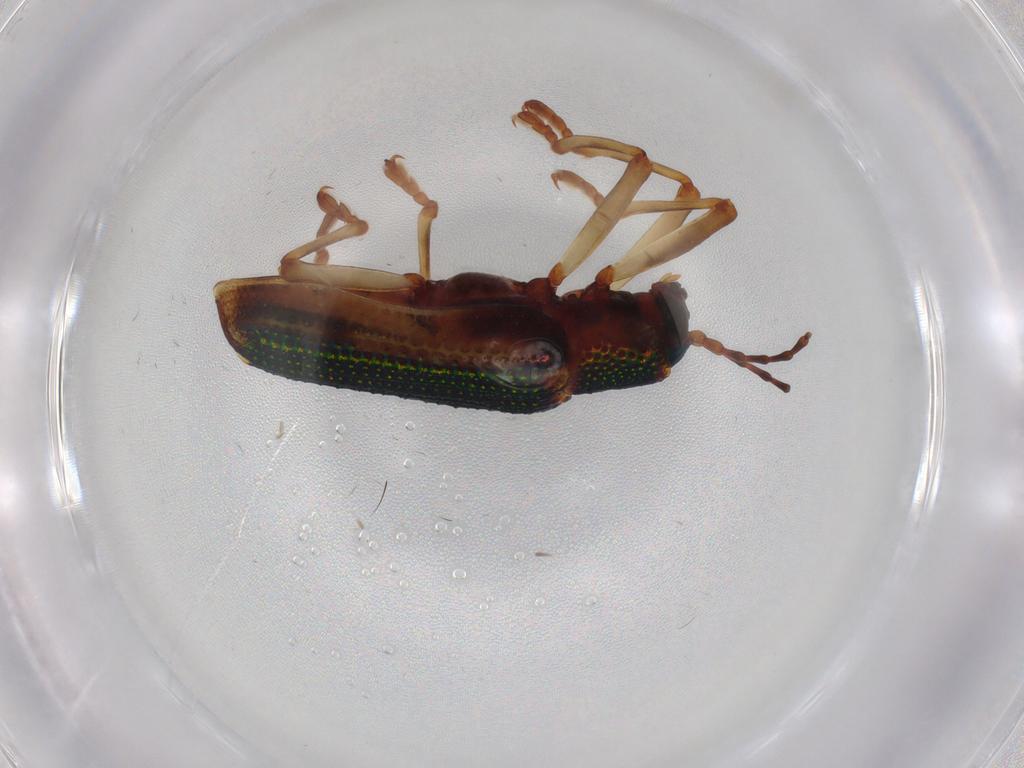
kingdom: Animalia
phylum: Arthropoda
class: Insecta
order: Coleoptera
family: Chrysomelidae
